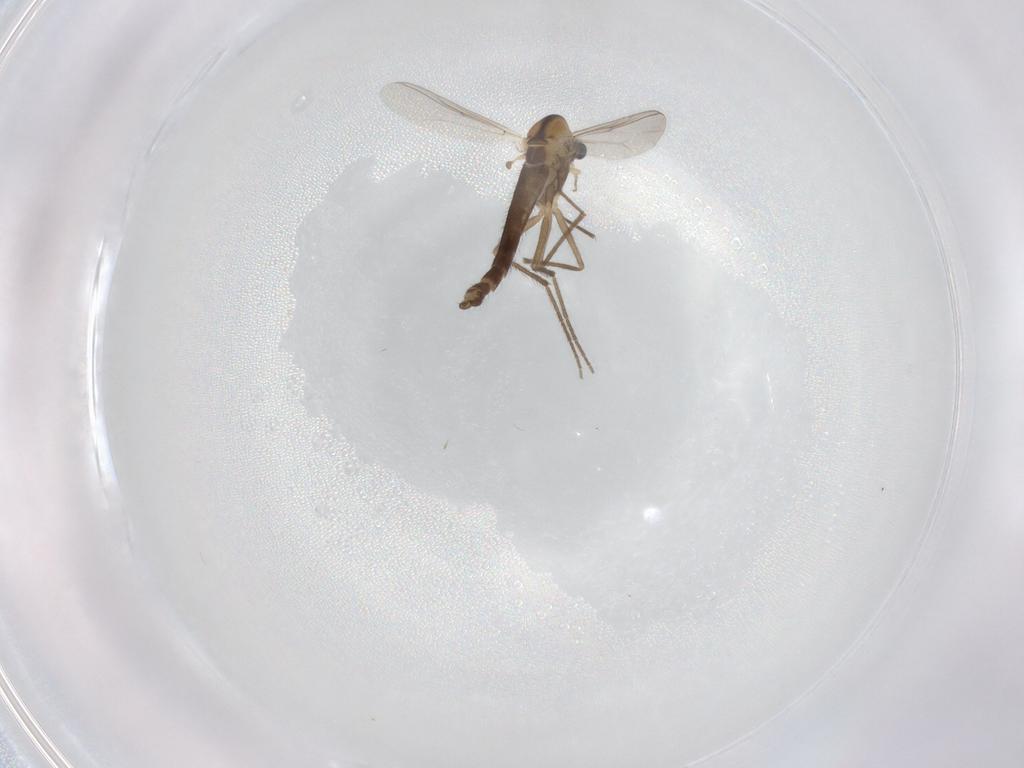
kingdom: Animalia
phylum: Arthropoda
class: Insecta
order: Diptera
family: Chironomidae
